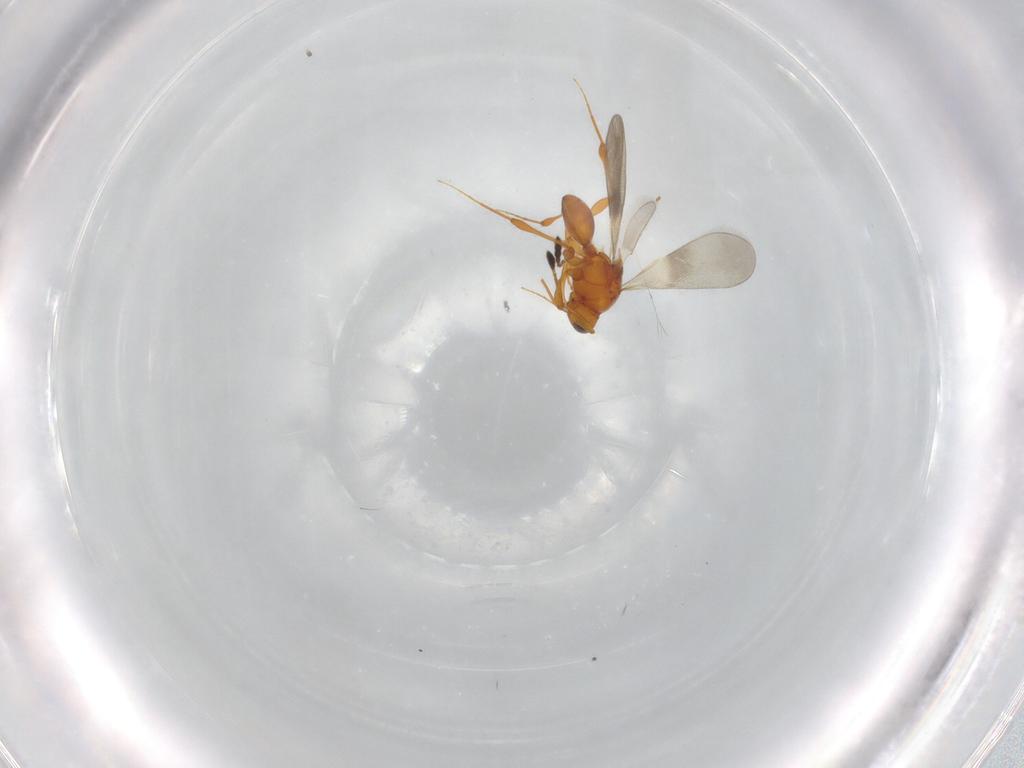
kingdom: Animalia
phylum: Arthropoda
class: Insecta
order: Hymenoptera
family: Platygastridae
